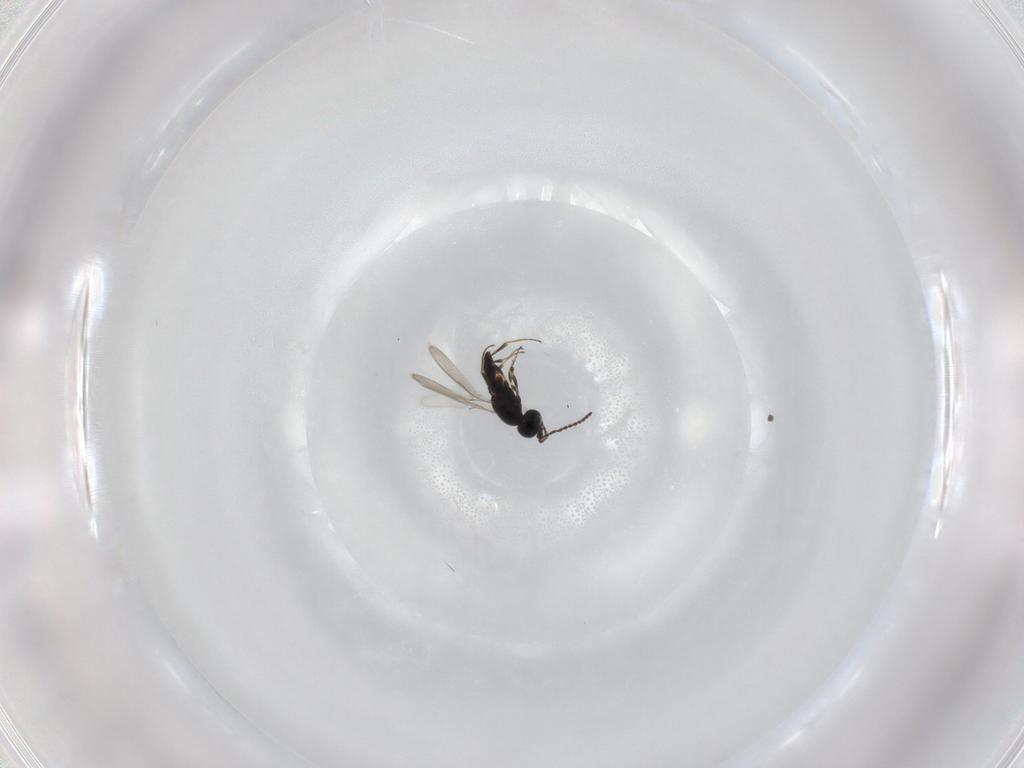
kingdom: Animalia
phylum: Arthropoda
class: Insecta
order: Hymenoptera
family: Scelionidae
